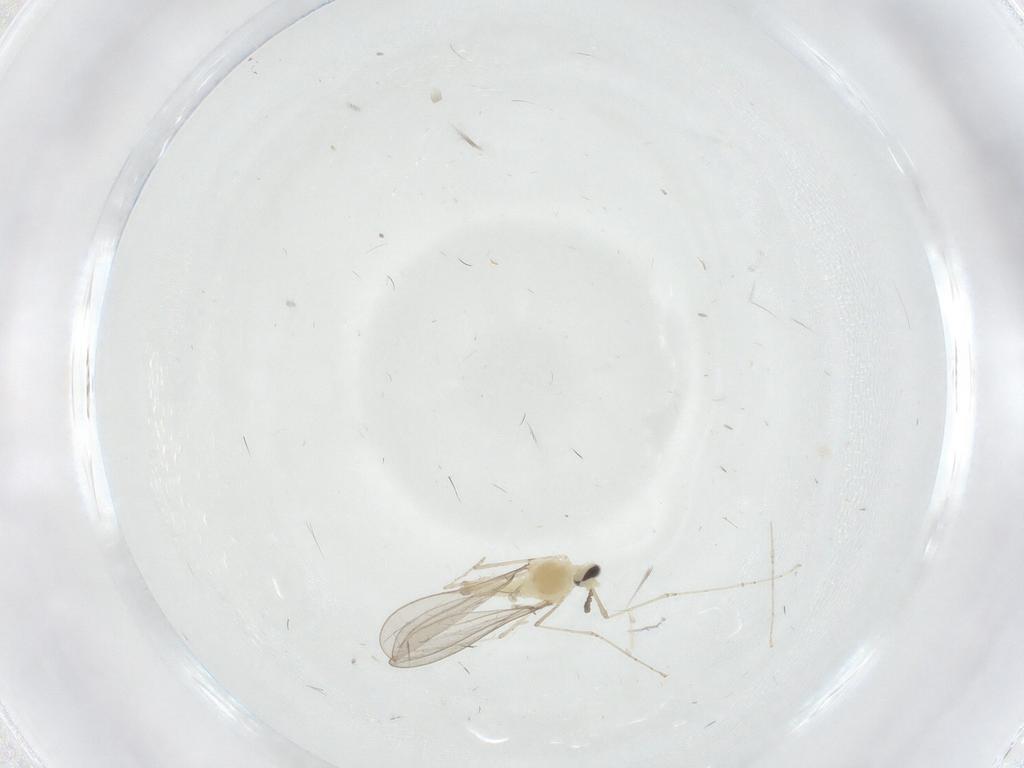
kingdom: Animalia
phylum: Arthropoda
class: Insecta
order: Diptera
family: Cecidomyiidae
